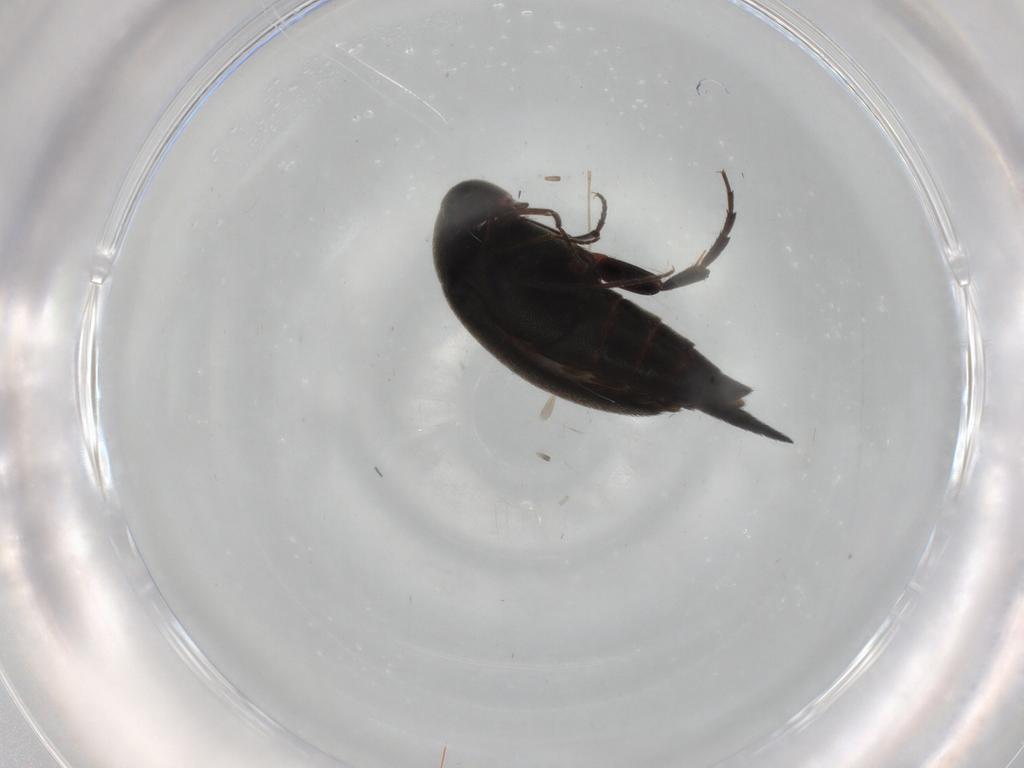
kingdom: Animalia
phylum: Arthropoda
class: Insecta
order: Coleoptera
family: Mordellidae
